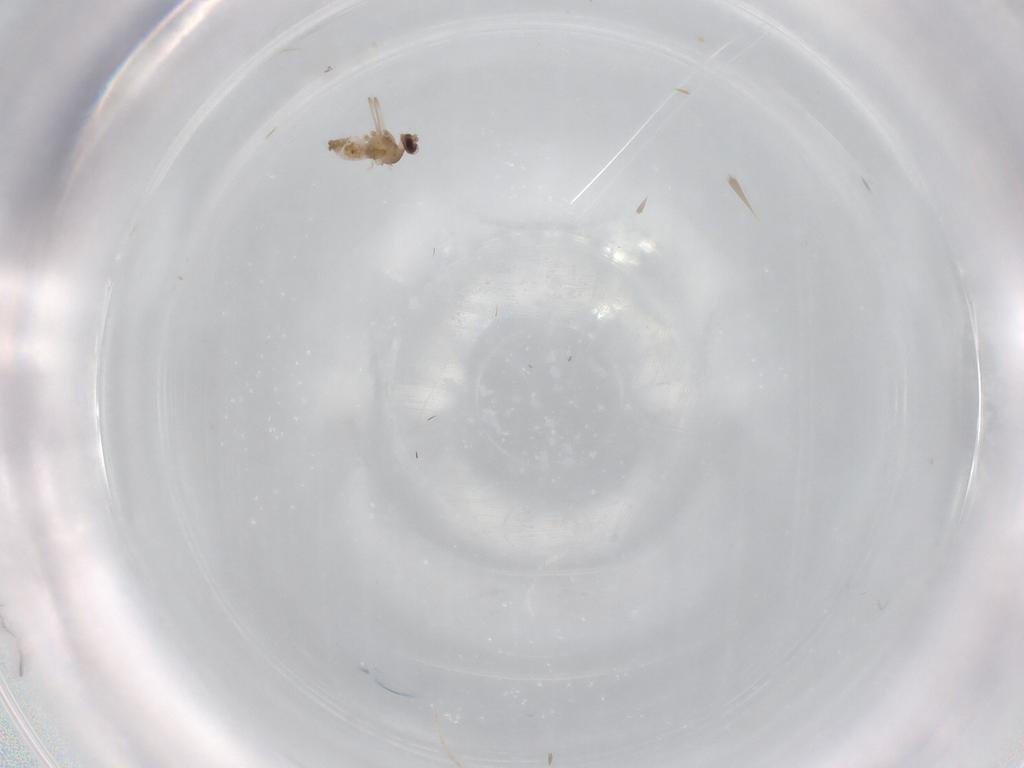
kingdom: Animalia
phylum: Arthropoda
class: Insecta
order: Diptera
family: Cecidomyiidae
